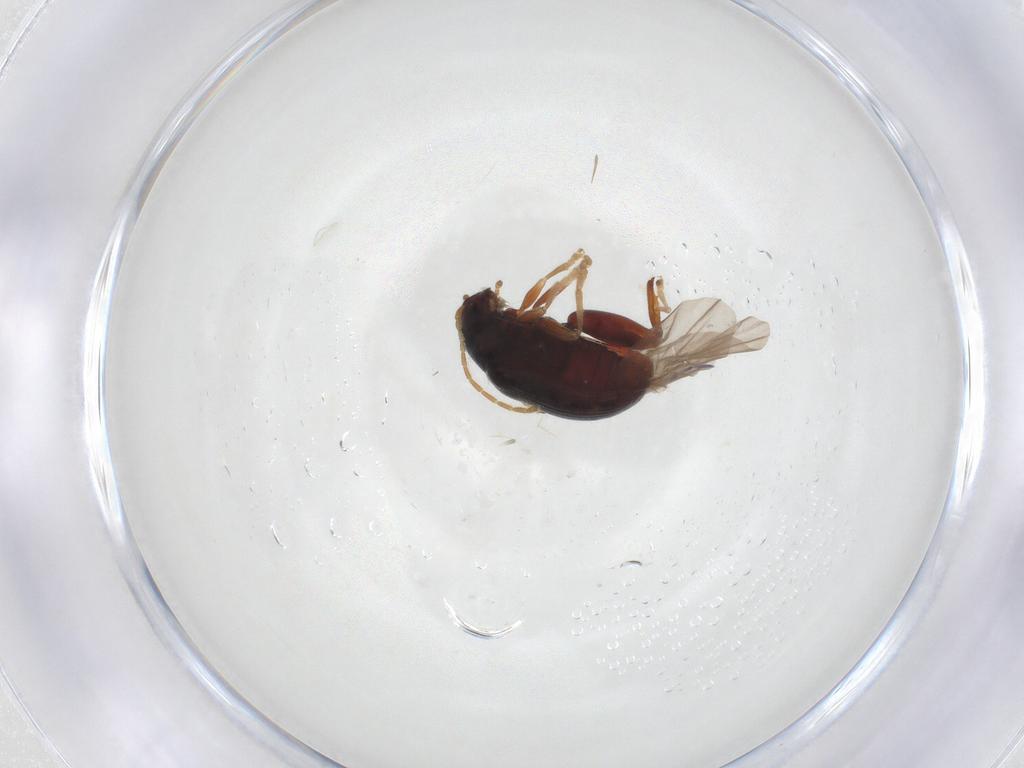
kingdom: Animalia
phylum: Arthropoda
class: Insecta
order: Coleoptera
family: Chrysomelidae
